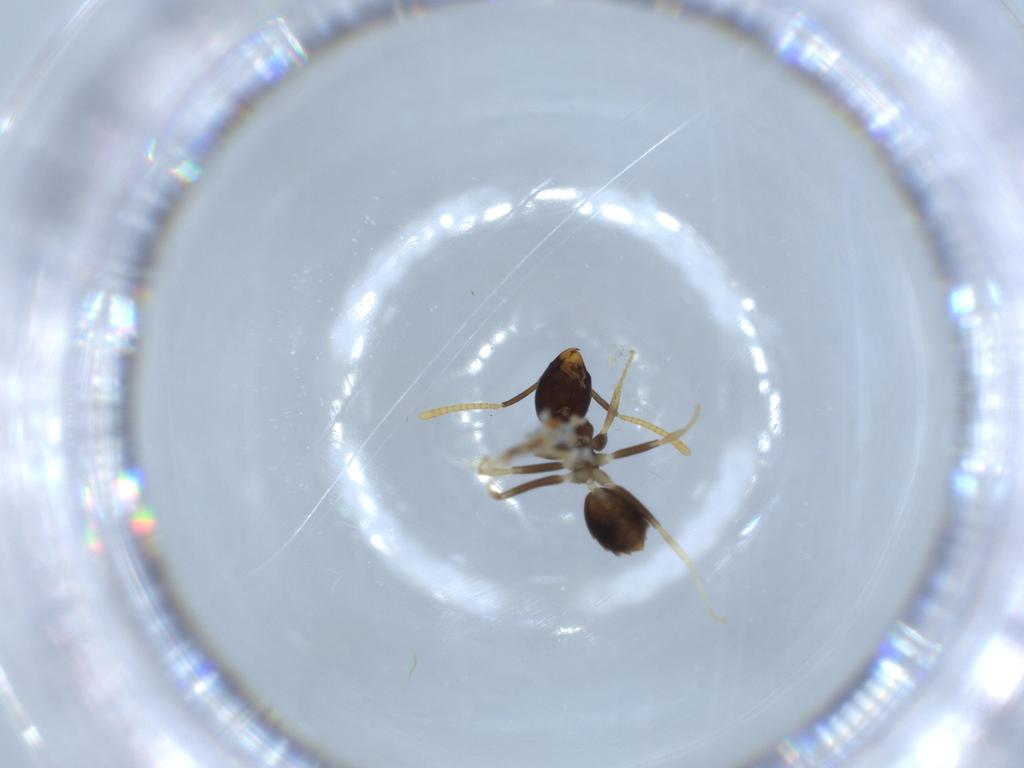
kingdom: Animalia
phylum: Arthropoda
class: Insecta
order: Hymenoptera
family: Formicidae
